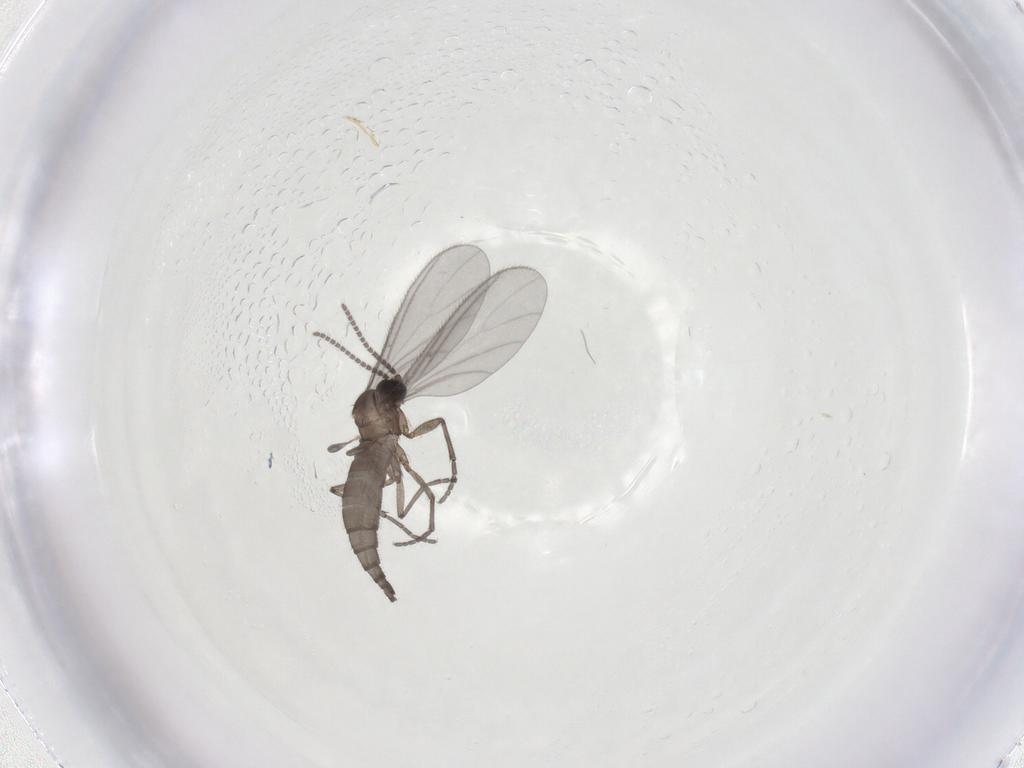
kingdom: Animalia
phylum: Arthropoda
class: Insecta
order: Diptera
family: Sciaridae
